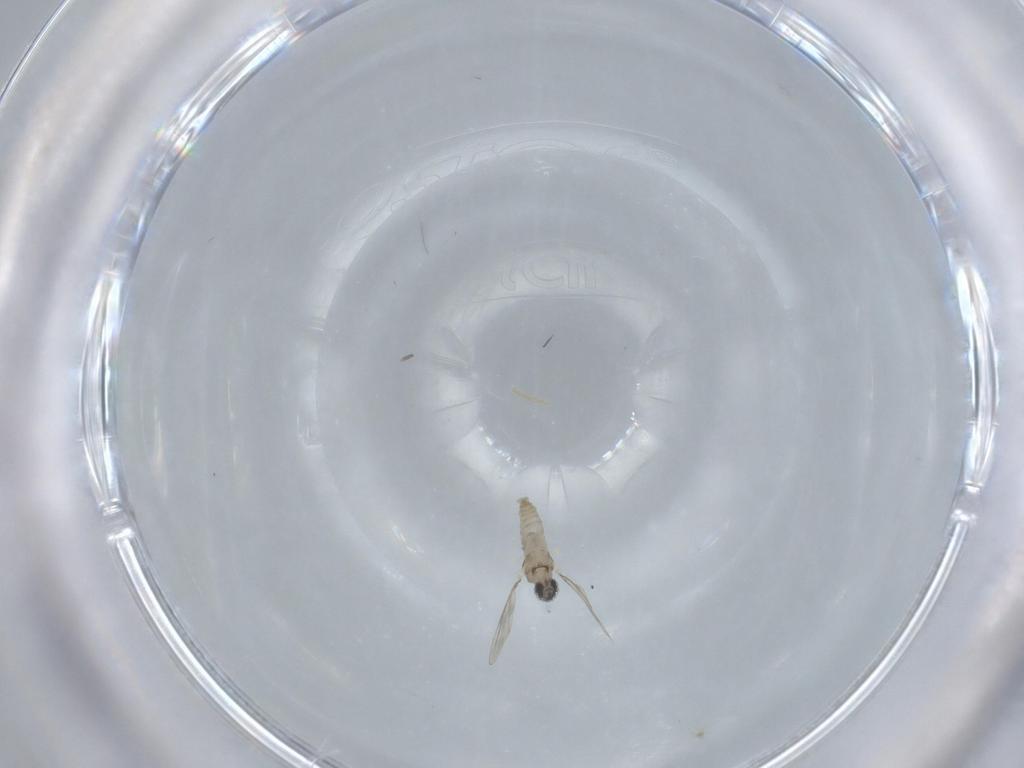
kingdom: Animalia
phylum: Arthropoda
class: Insecta
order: Diptera
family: Cecidomyiidae
